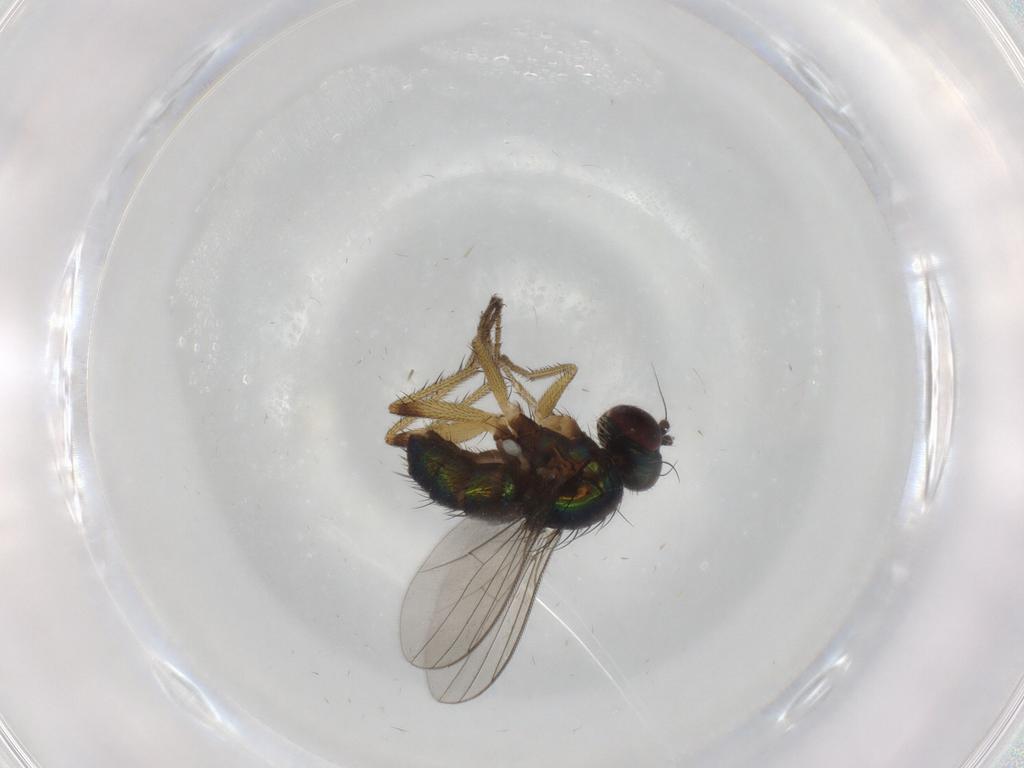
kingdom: Animalia
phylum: Arthropoda
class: Insecta
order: Diptera
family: Dolichopodidae
